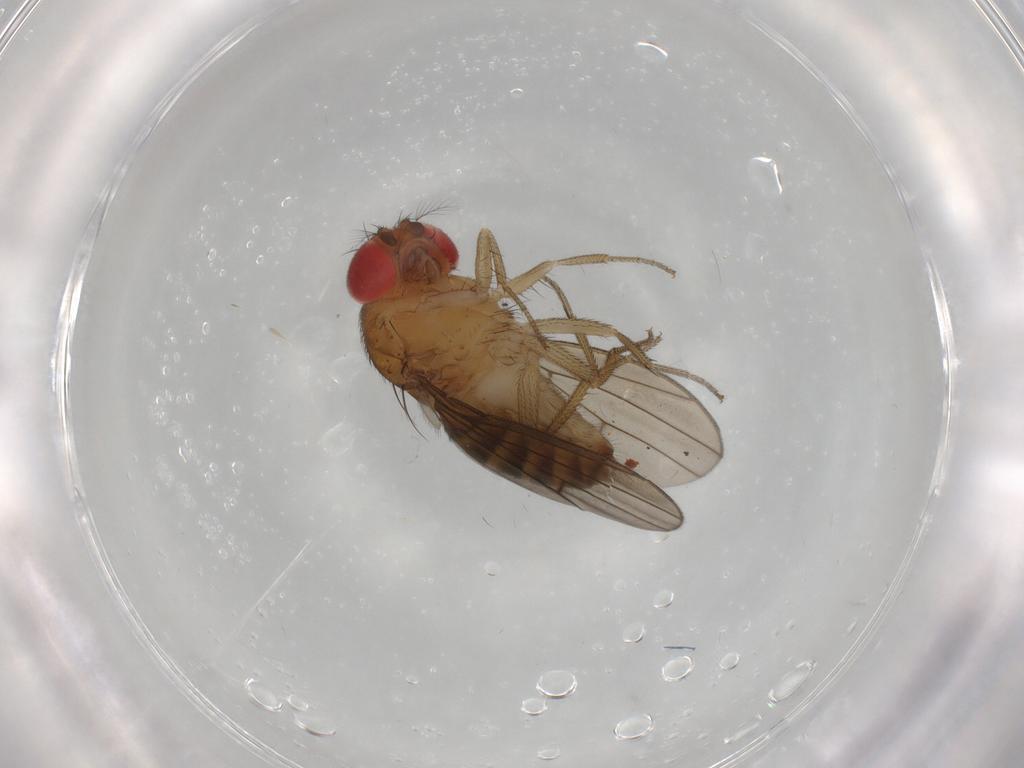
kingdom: Animalia
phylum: Arthropoda
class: Insecta
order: Diptera
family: Drosophilidae
